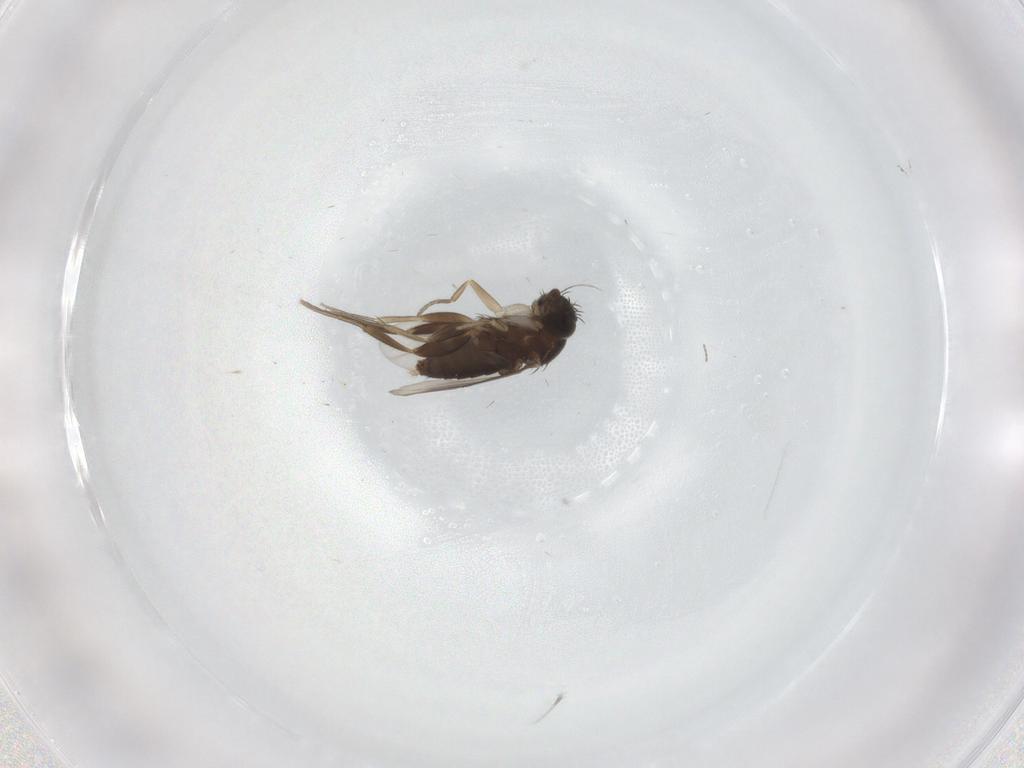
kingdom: Animalia
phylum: Arthropoda
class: Insecta
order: Diptera
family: Phoridae
